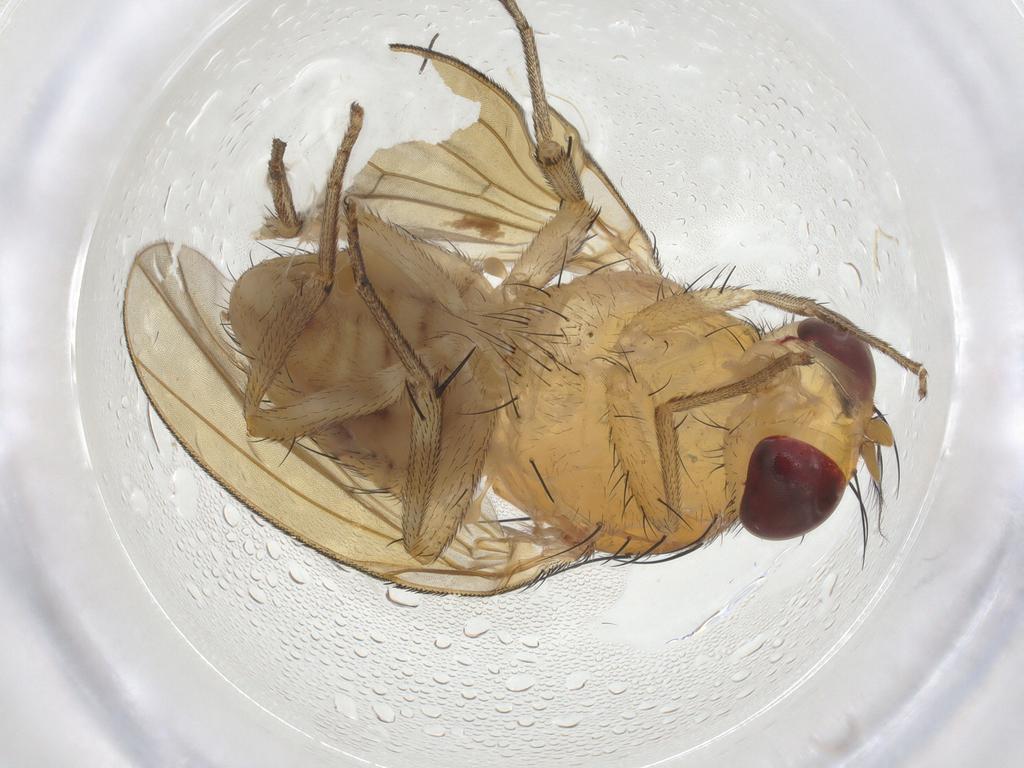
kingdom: Animalia
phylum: Arthropoda
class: Insecta
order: Diptera
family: Sciaridae
